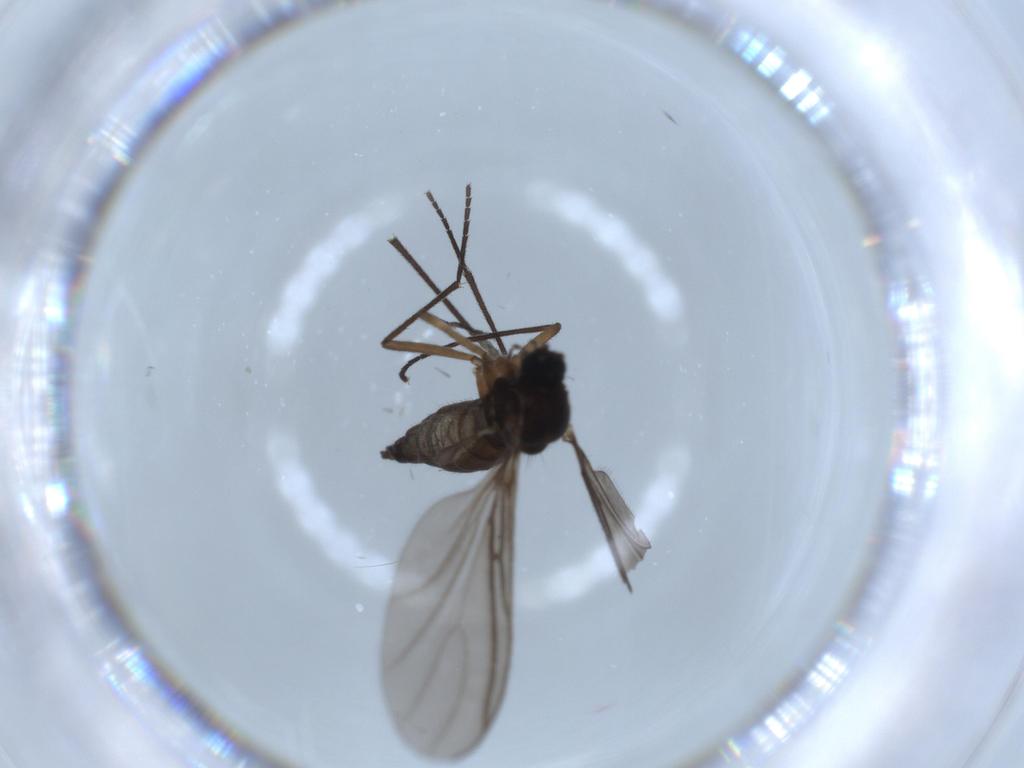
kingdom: Animalia
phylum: Arthropoda
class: Insecta
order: Diptera
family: Sciaridae
